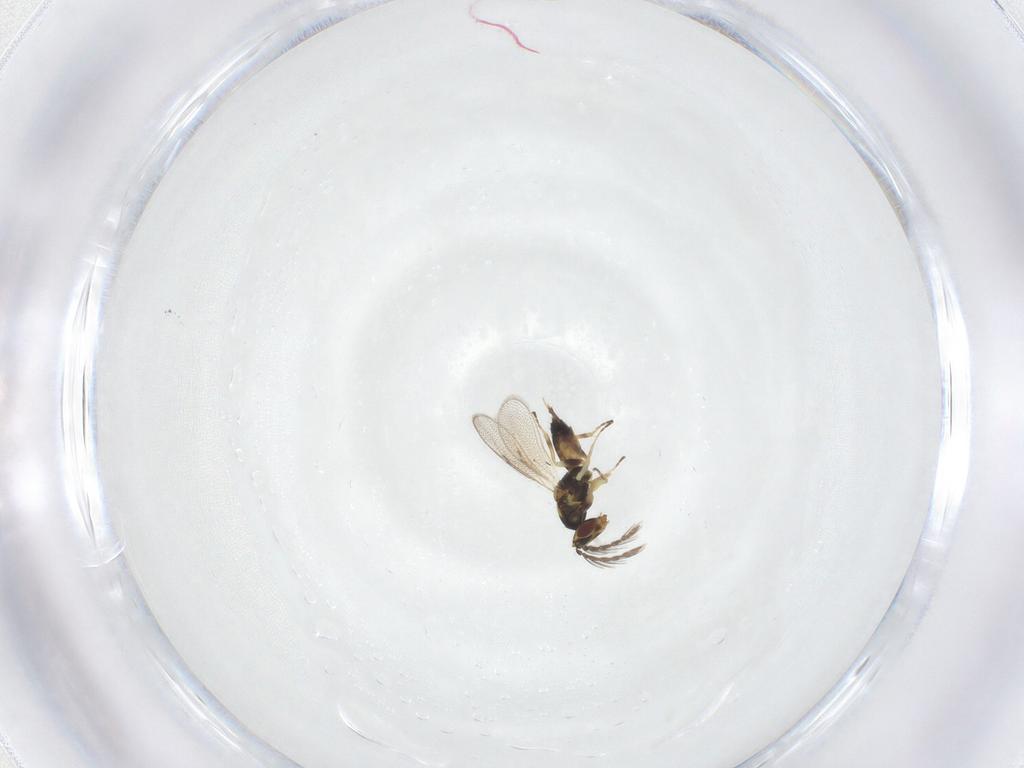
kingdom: Animalia
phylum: Arthropoda
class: Insecta
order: Hymenoptera
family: Eulophidae
